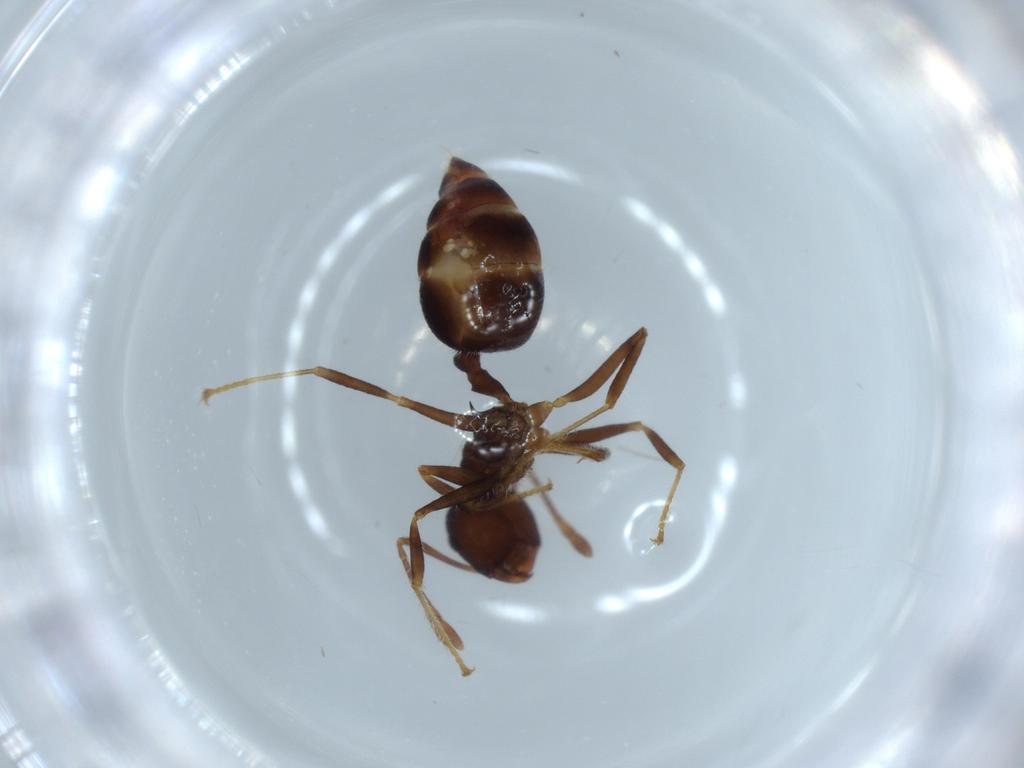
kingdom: Animalia
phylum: Arthropoda
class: Insecta
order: Hymenoptera
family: Formicidae
